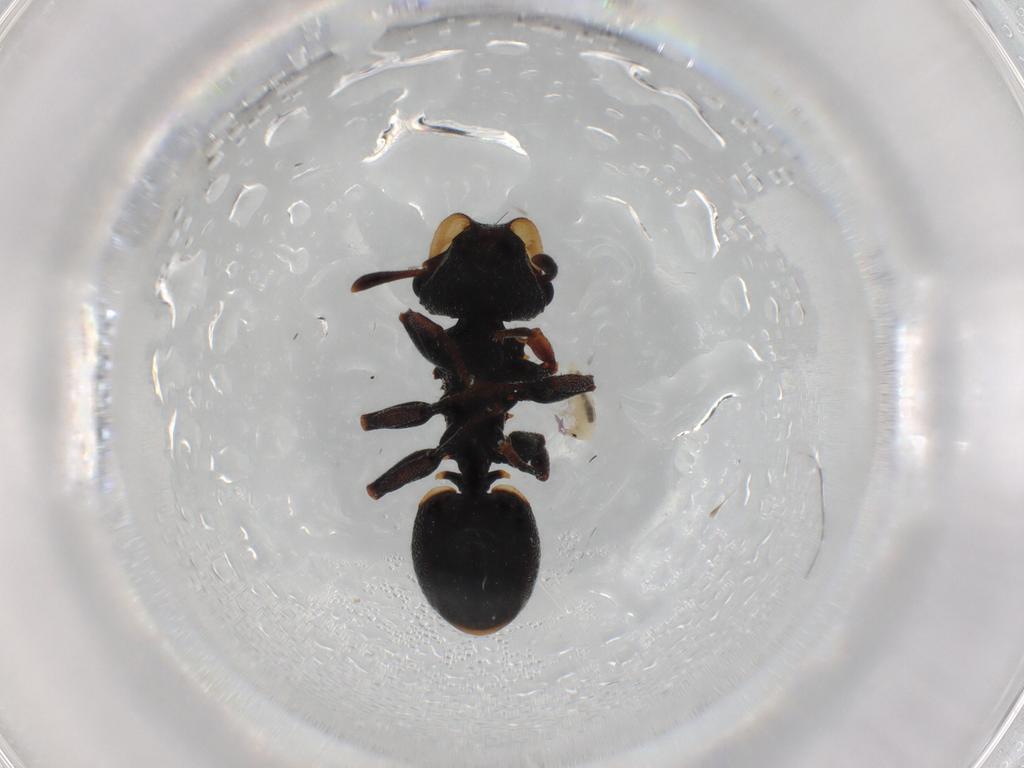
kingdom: Animalia
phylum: Arthropoda
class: Insecta
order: Hymenoptera
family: Formicidae
